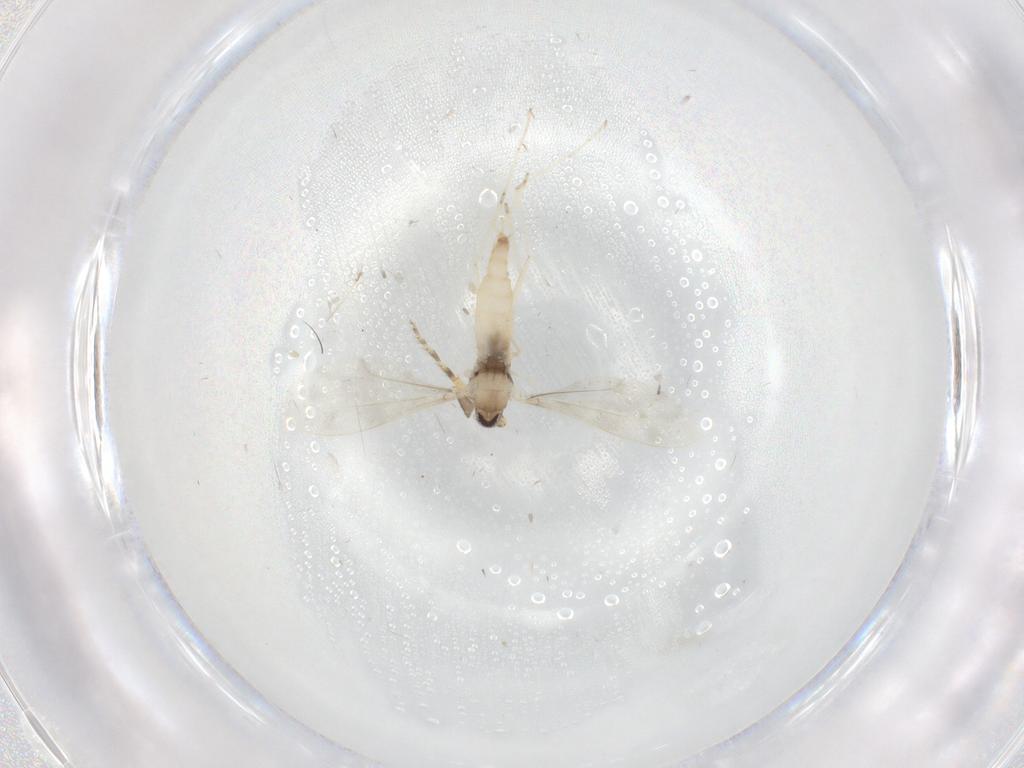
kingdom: Animalia
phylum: Arthropoda
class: Insecta
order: Diptera
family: Cecidomyiidae
